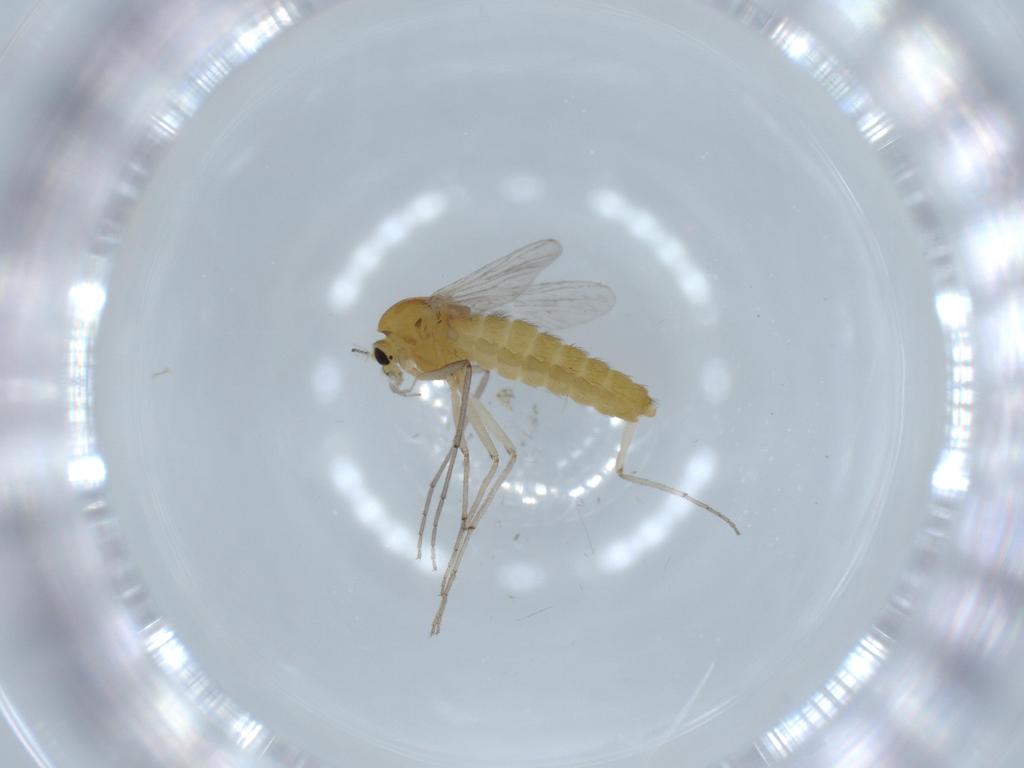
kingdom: Animalia
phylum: Arthropoda
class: Insecta
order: Diptera
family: Chironomidae
